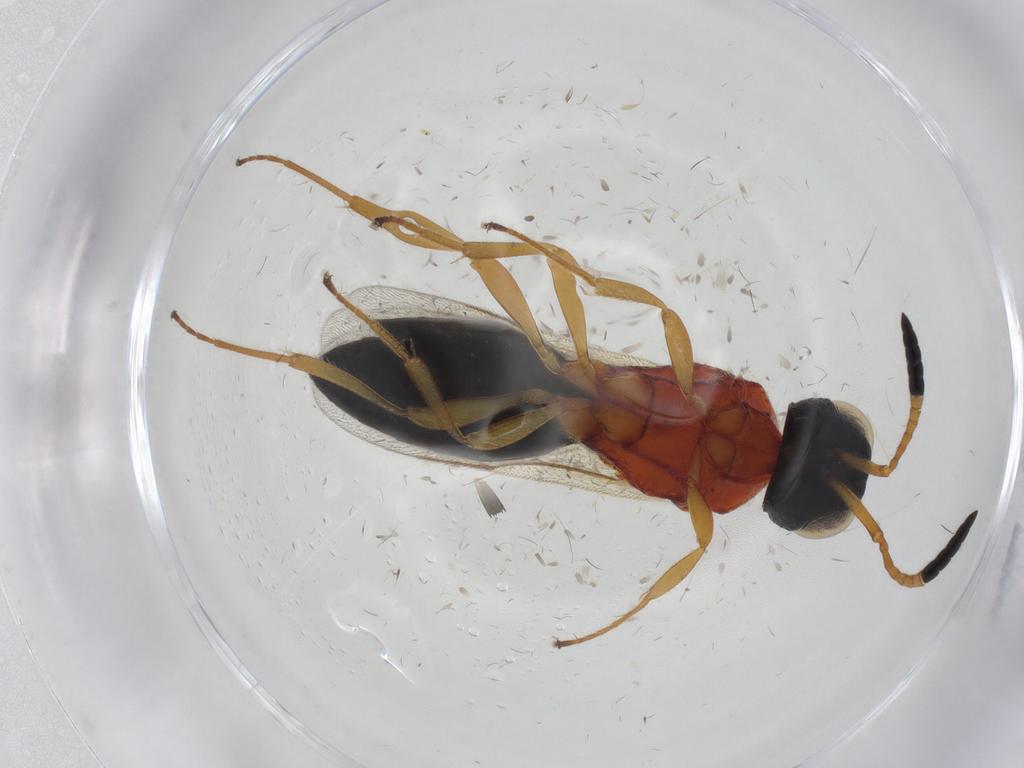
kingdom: Animalia
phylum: Arthropoda
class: Insecta
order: Hymenoptera
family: Scelionidae
